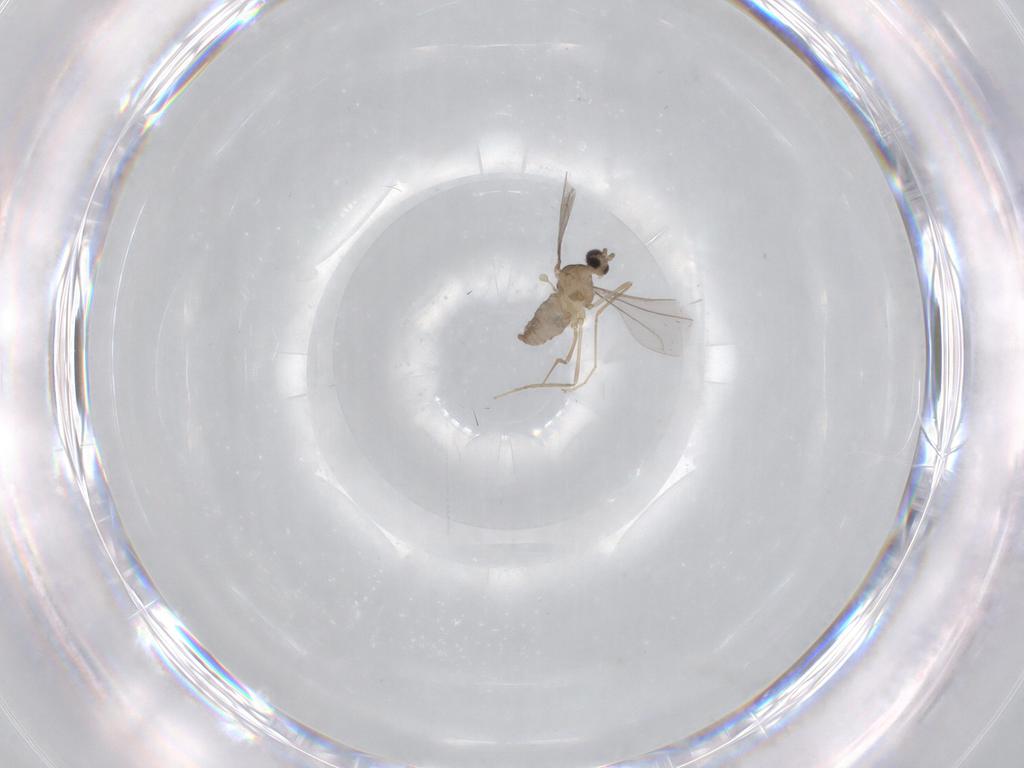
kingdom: Animalia
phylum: Arthropoda
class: Insecta
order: Diptera
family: Cecidomyiidae
